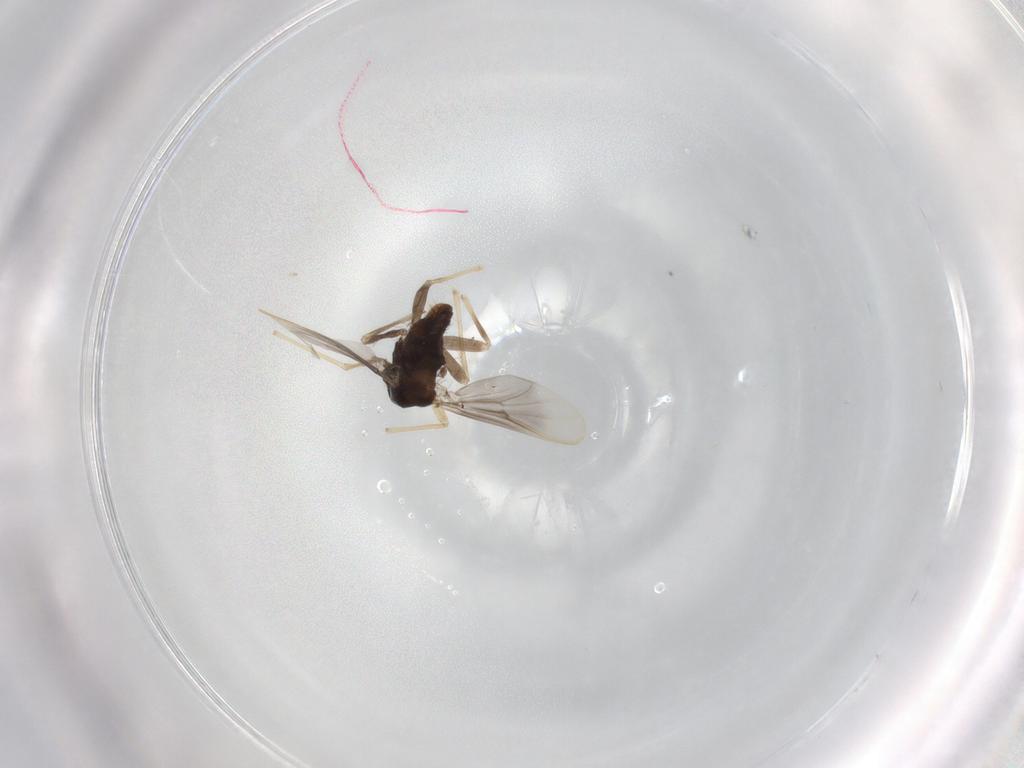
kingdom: Animalia
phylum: Arthropoda
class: Insecta
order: Diptera
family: Chironomidae
